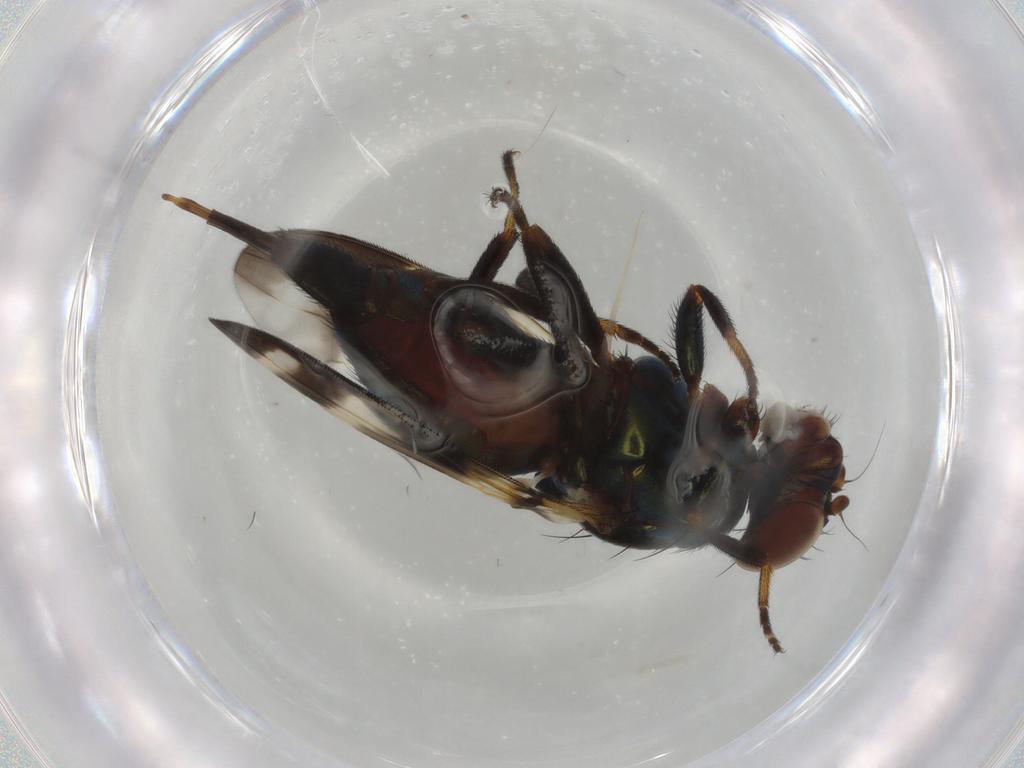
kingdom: Animalia
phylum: Arthropoda
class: Insecta
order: Diptera
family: Ulidiidae
